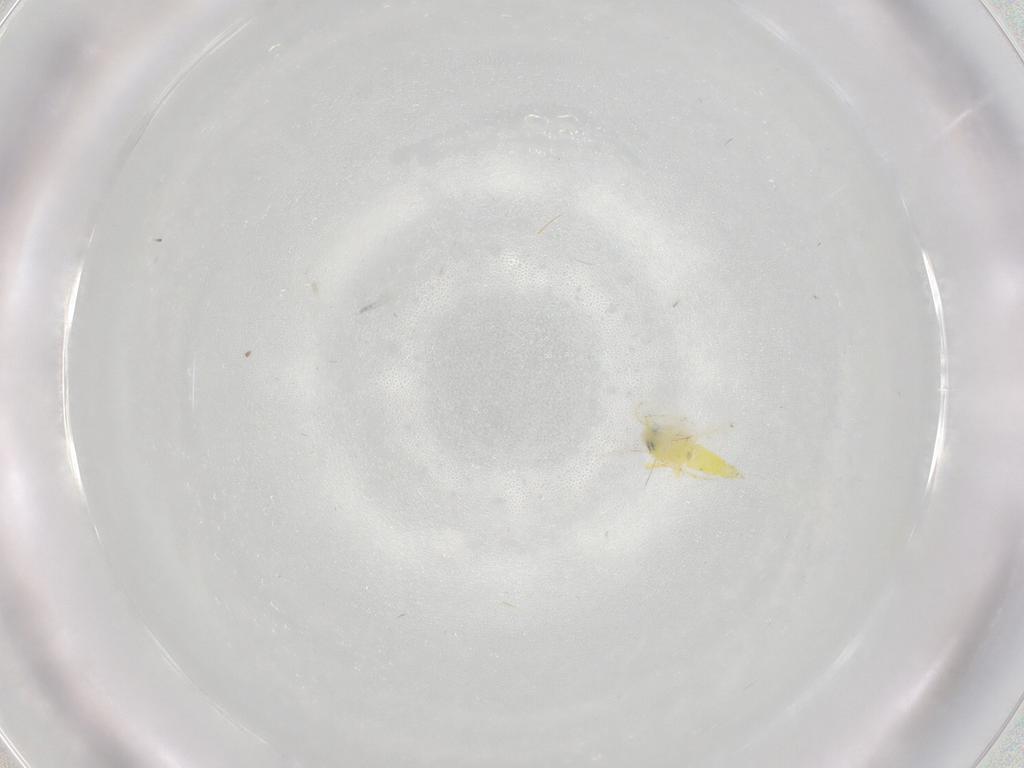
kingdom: Animalia
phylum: Arthropoda
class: Insecta
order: Hemiptera
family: Aleyrodidae
